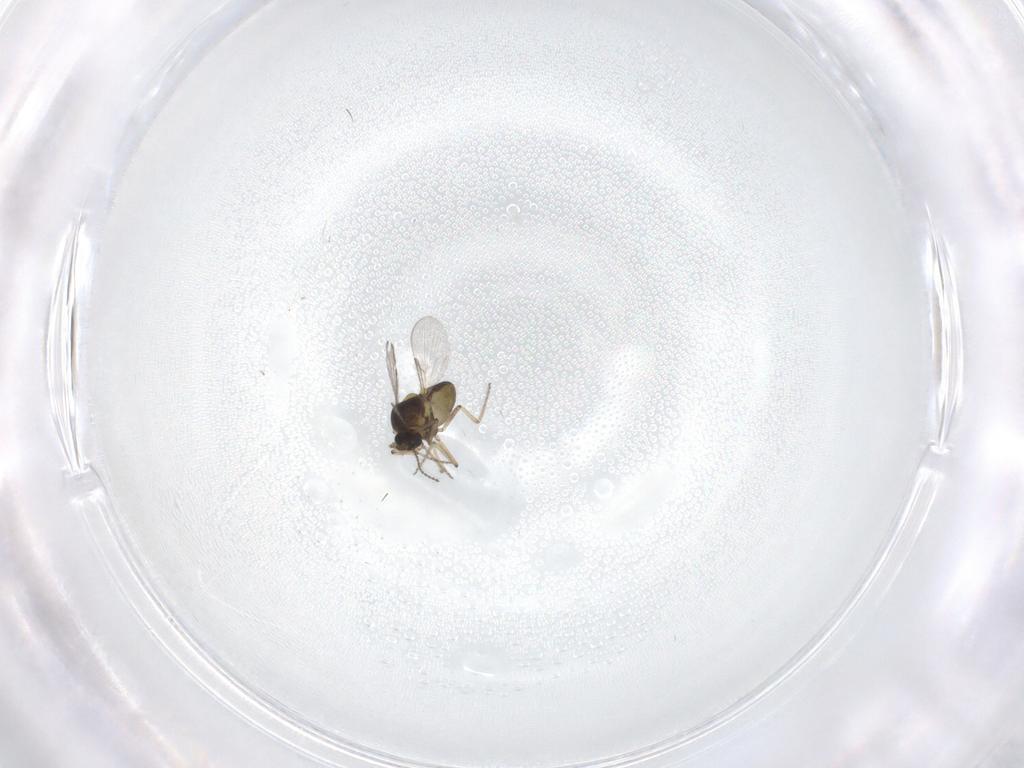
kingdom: Animalia
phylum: Arthropoda
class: Insecta
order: Diptera
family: Ceratopogonidae
